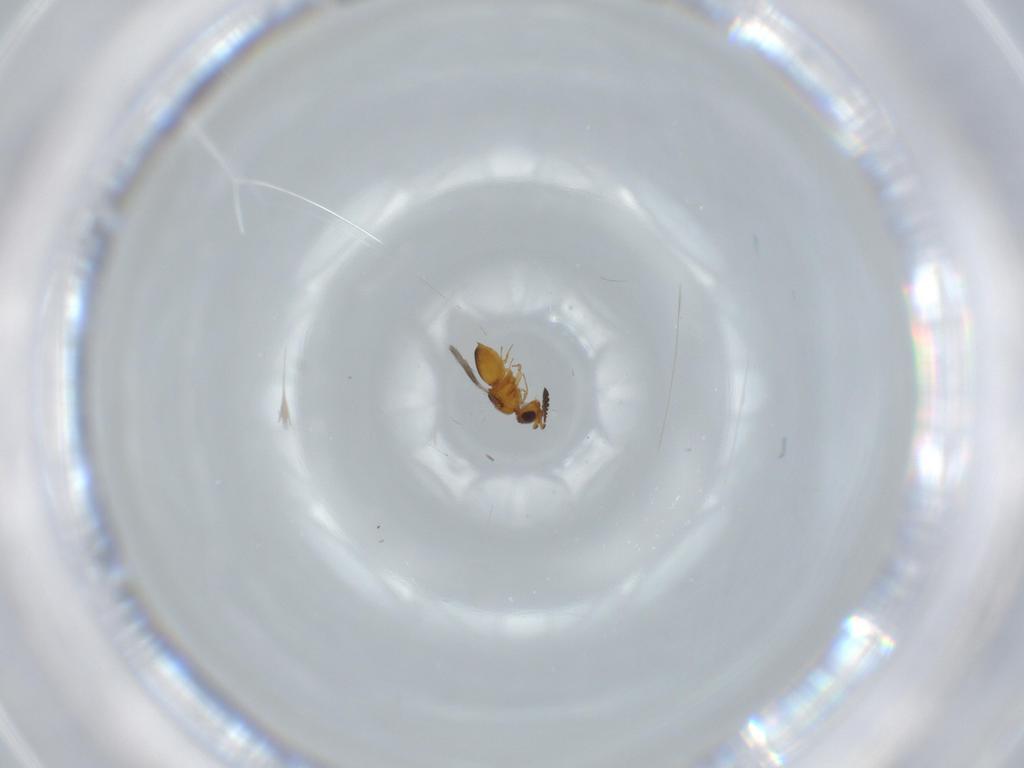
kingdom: Animalia
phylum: Arthropoda
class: Insecta
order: Hymenoptera
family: Ceraphronidae
